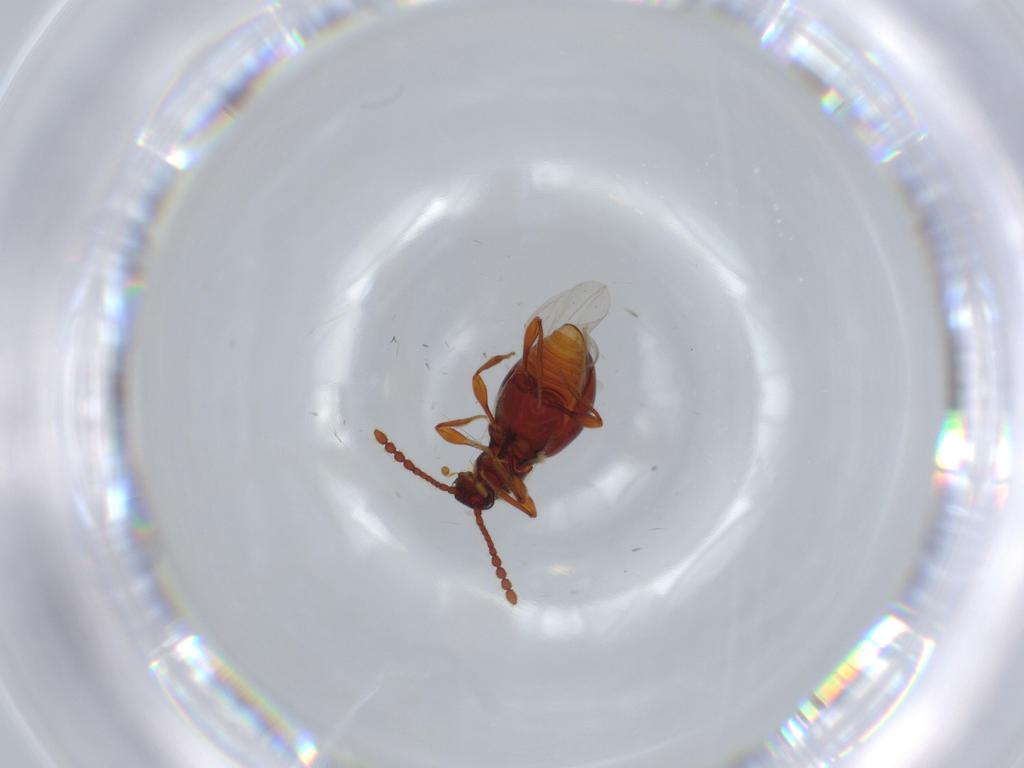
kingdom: Animalia
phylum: Arthropoda
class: Insecta
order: Coleoptera
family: Staphylinidae
